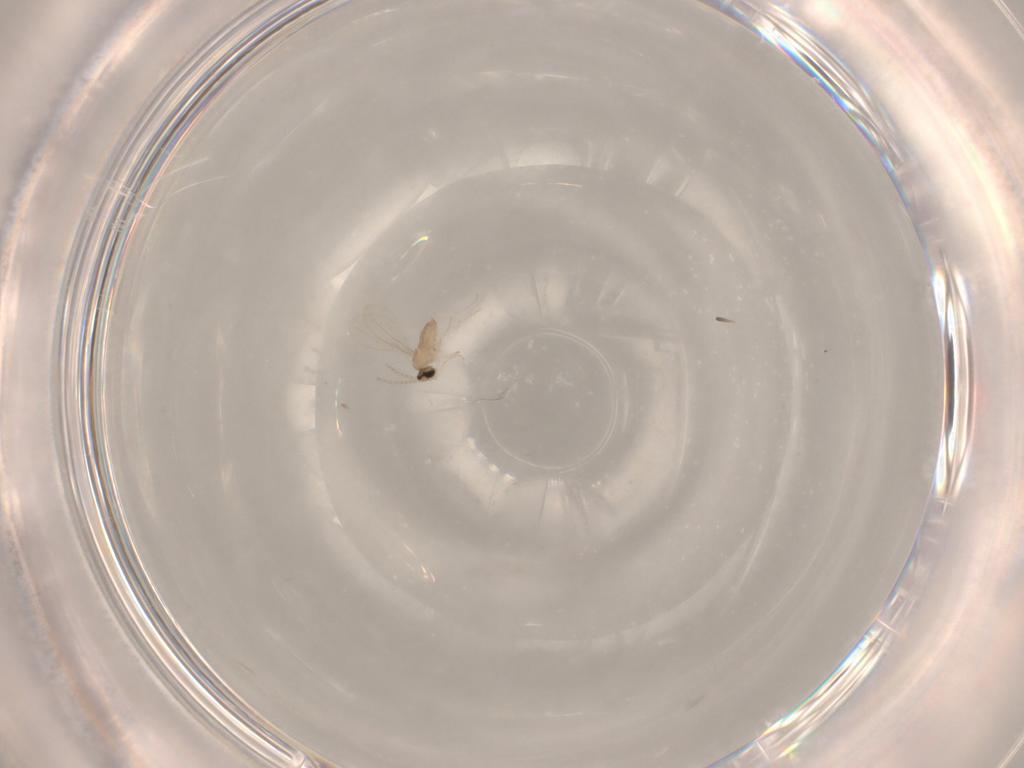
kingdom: Animalia
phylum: Arthropoda
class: Insecta
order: Diptera
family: Cecidomyiidae
